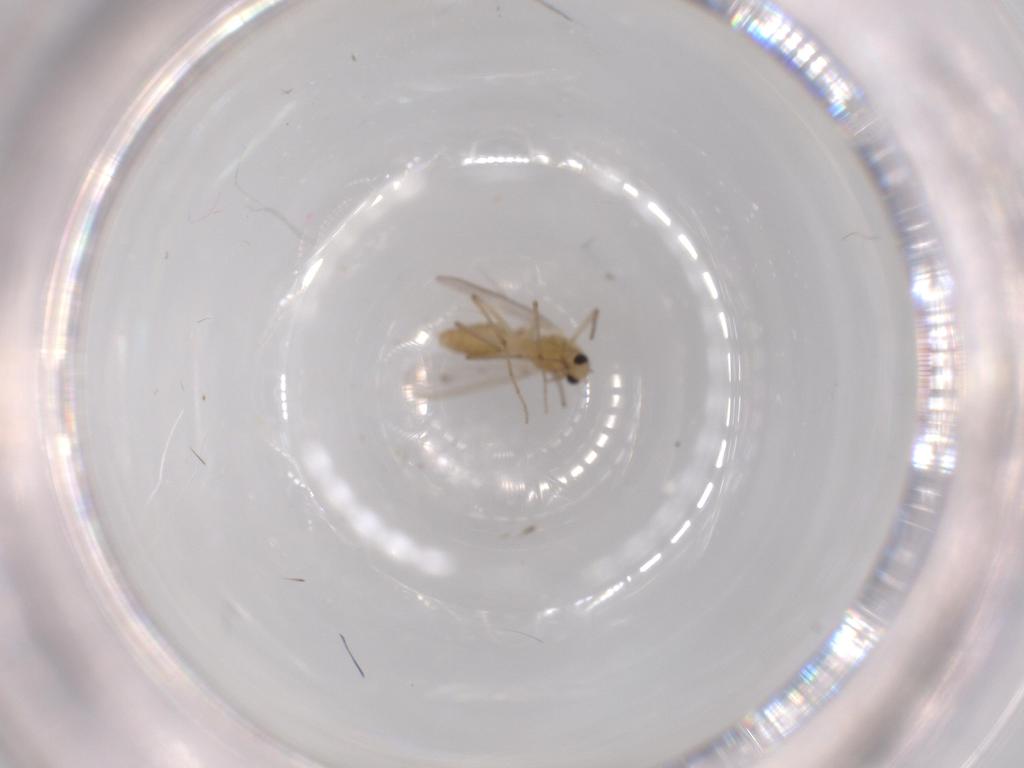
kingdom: Animalia
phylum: Arthropoda
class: Insecta
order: Diptera
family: Chironomidae
